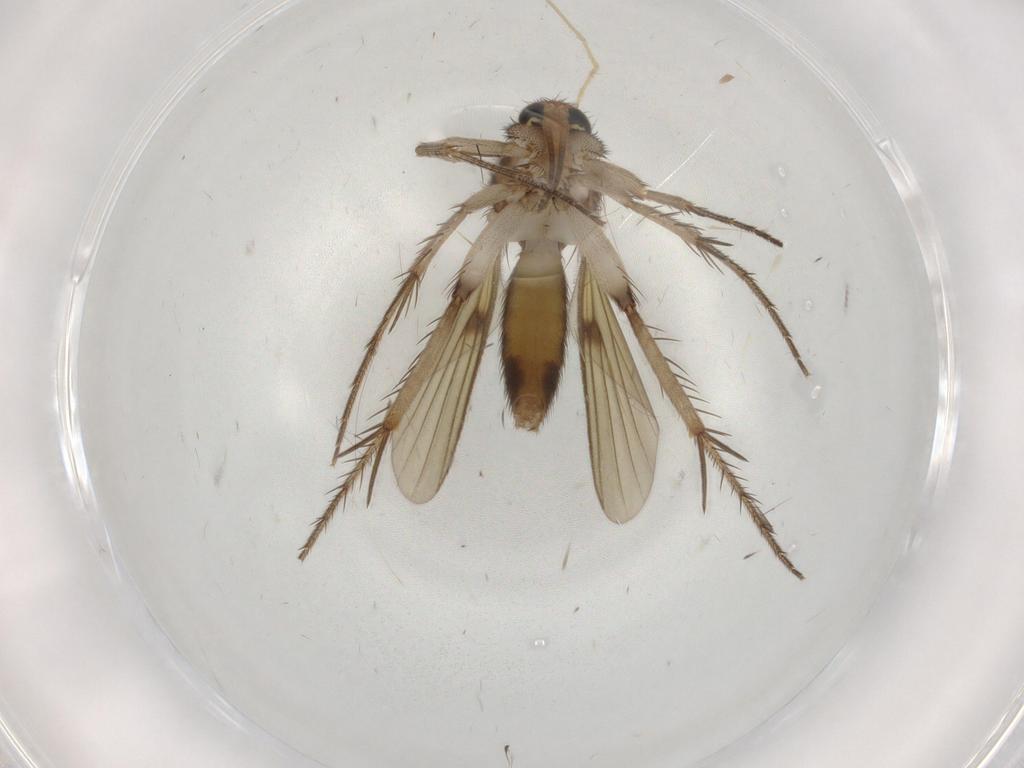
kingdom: Animalia
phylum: Arthropoda
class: Insecta
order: Diptera
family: Mycetophilidae
